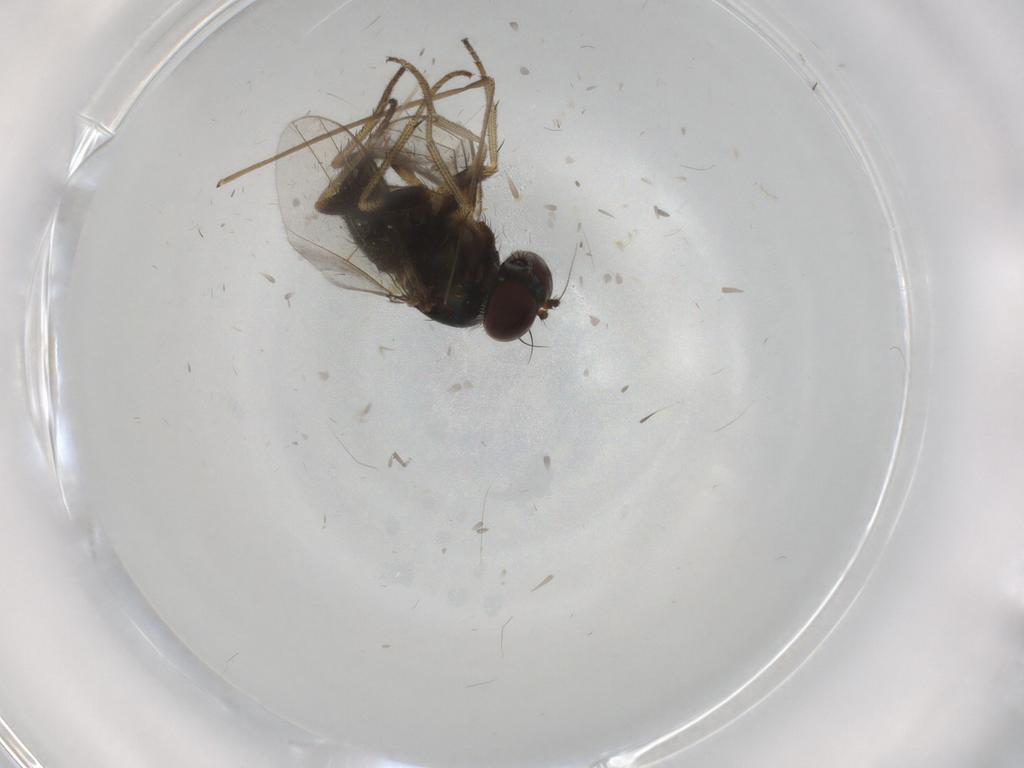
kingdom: Animalia
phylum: Arthropoda
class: Insecta
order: Diptera
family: Dolichopodidae
